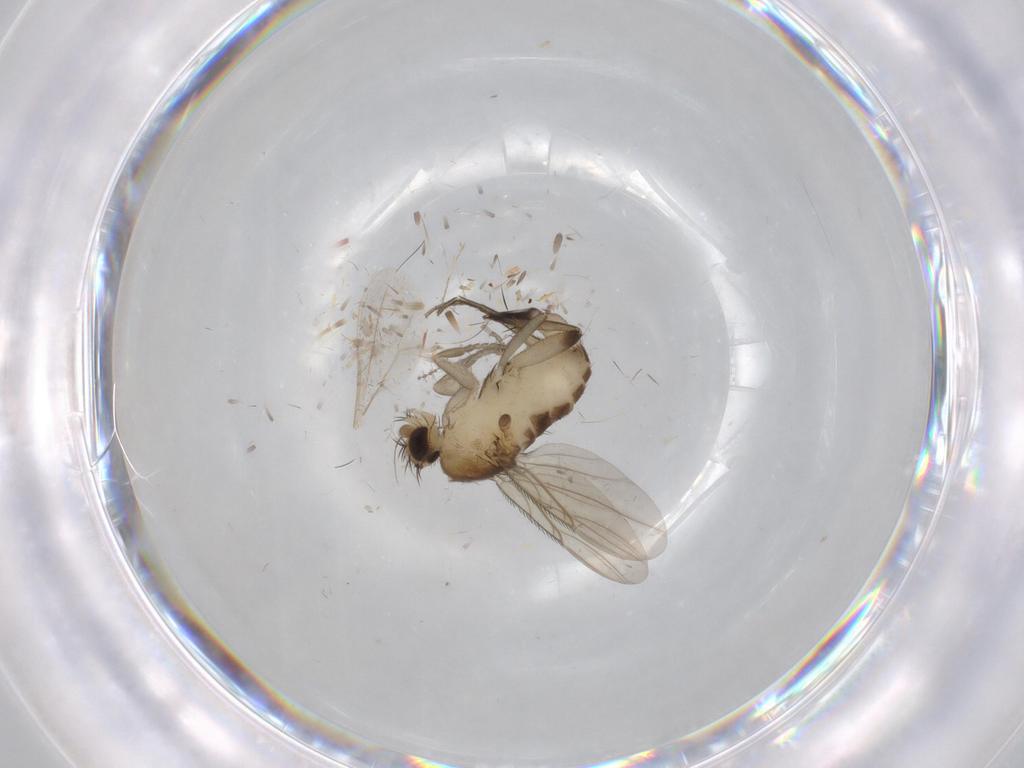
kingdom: Animalia
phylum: Arthropoda
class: Insecta
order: Diptera
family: Chironomidae
